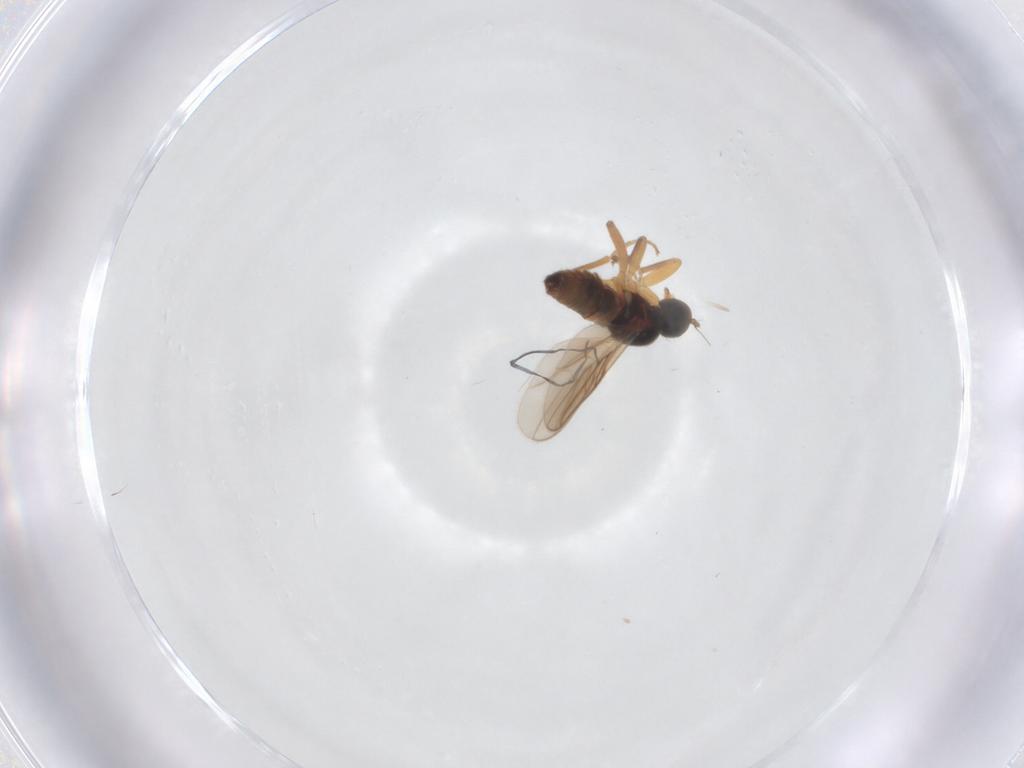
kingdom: Animalia
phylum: Arthropoda
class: Insecta
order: Diptera
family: Hybotidae
